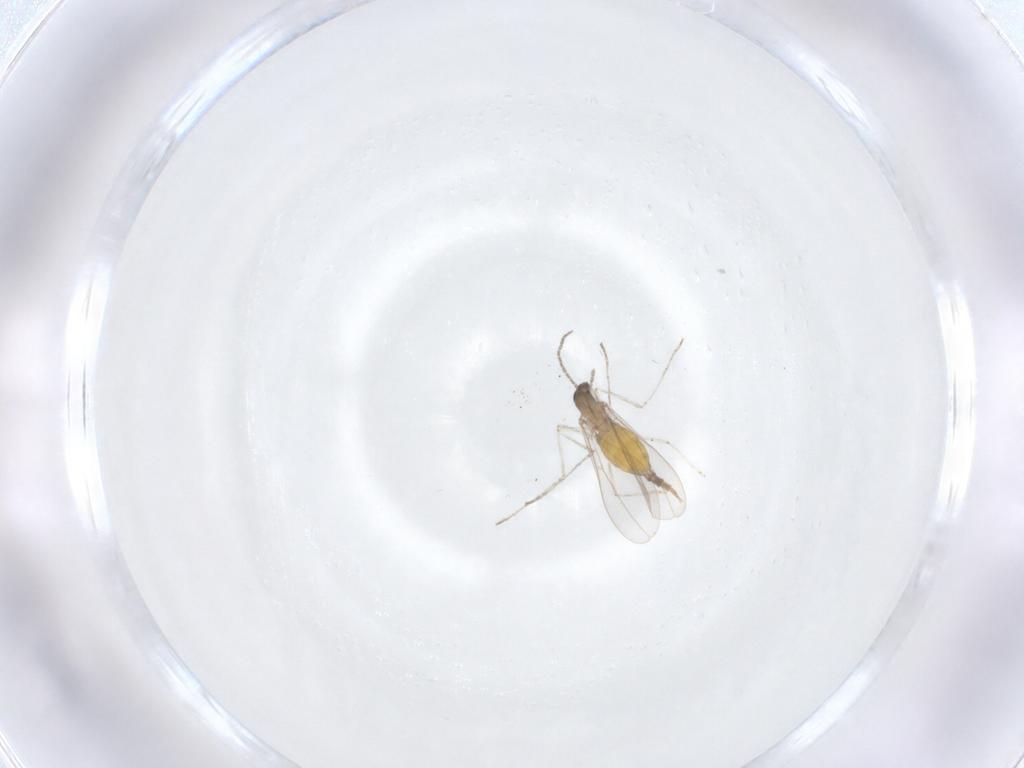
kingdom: Animalia
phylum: Arthropoda
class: Insecta
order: Diptera
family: Cecidomyiidae
